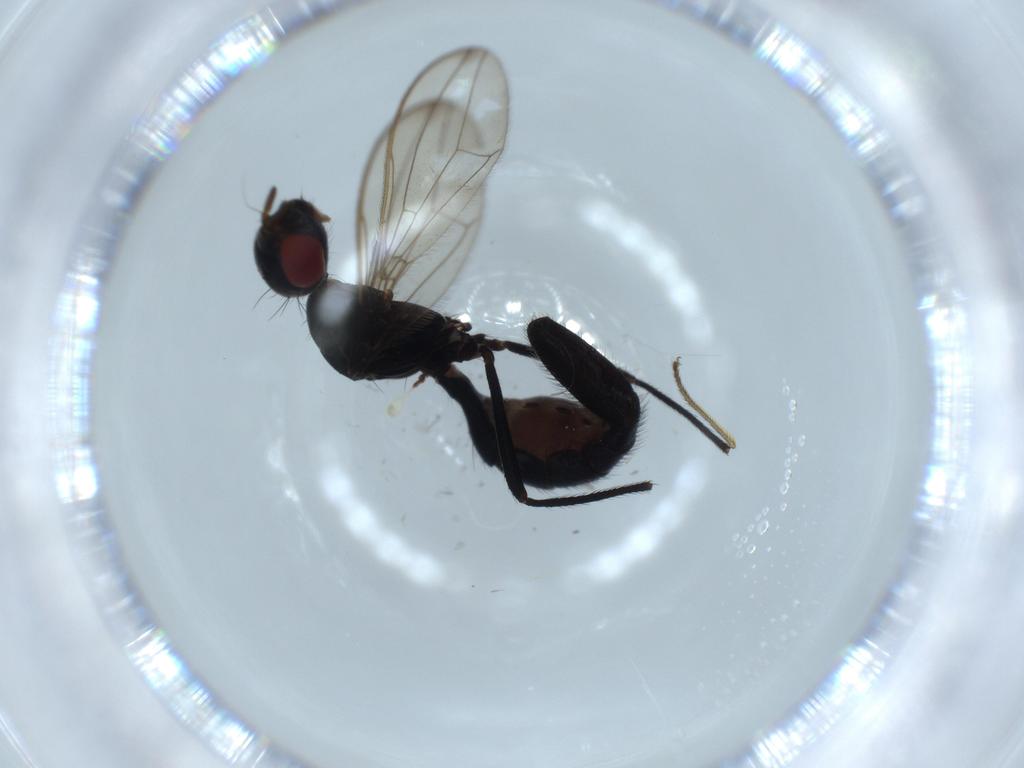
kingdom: Animalia
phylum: Arthropoda
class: Insecta
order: Diptera
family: Richardiidae
